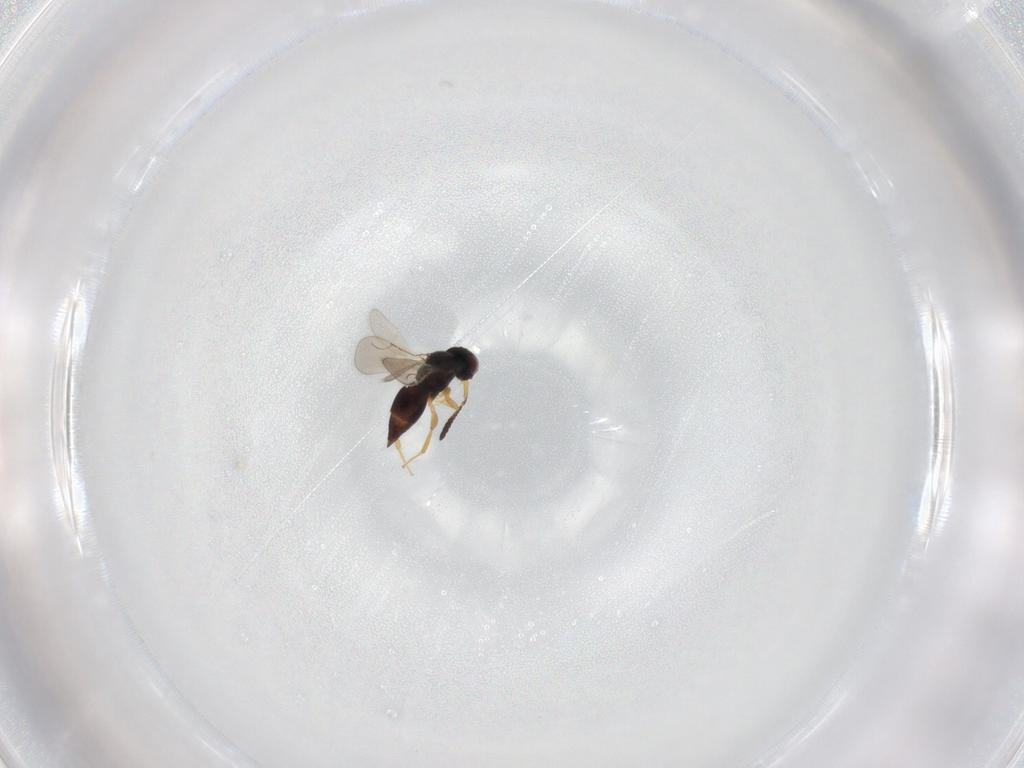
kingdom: Animalia
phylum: Arthropoda
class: Insecta
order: Hymenoptera
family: Ceraphronidae
